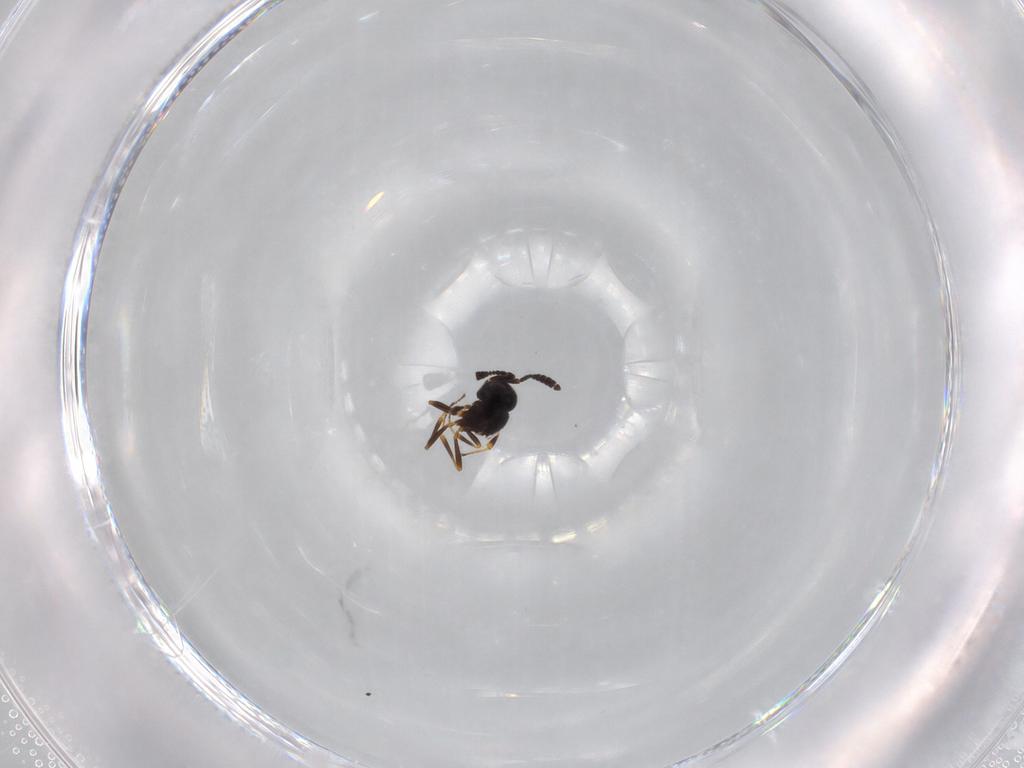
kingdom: Animalia
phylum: Arthropoda
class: Insecta
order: Hymenoptera
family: Scelionidae
